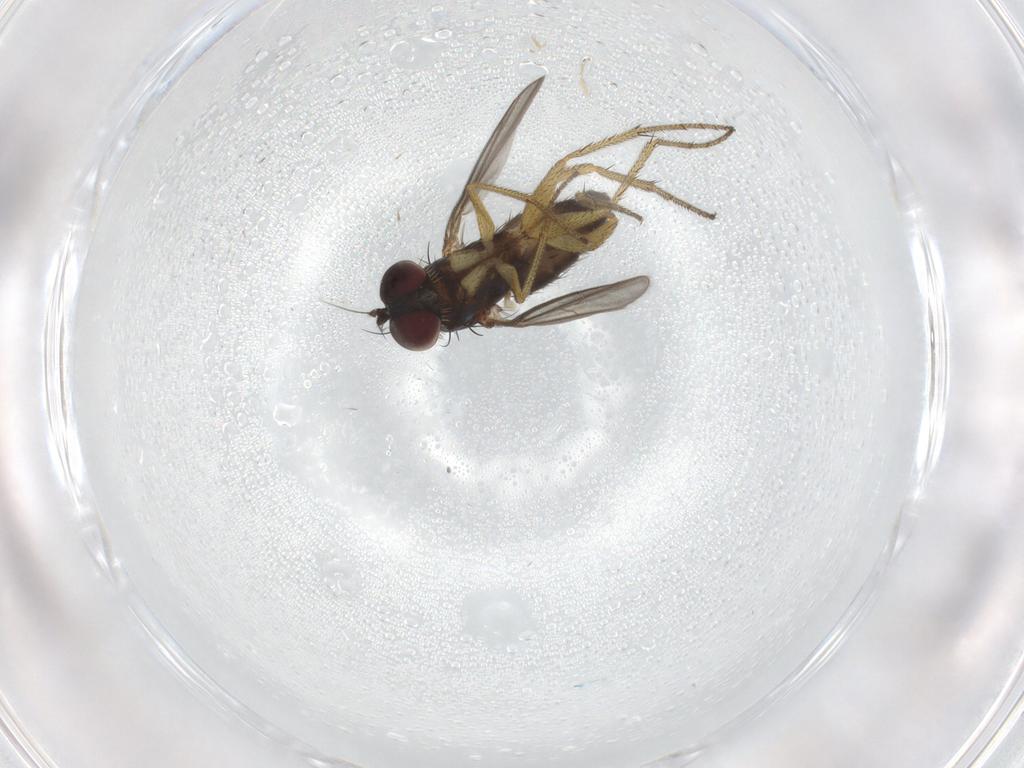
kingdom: Animalia
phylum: Arthropoda
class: Insecta
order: Diptera
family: Chironomidae
